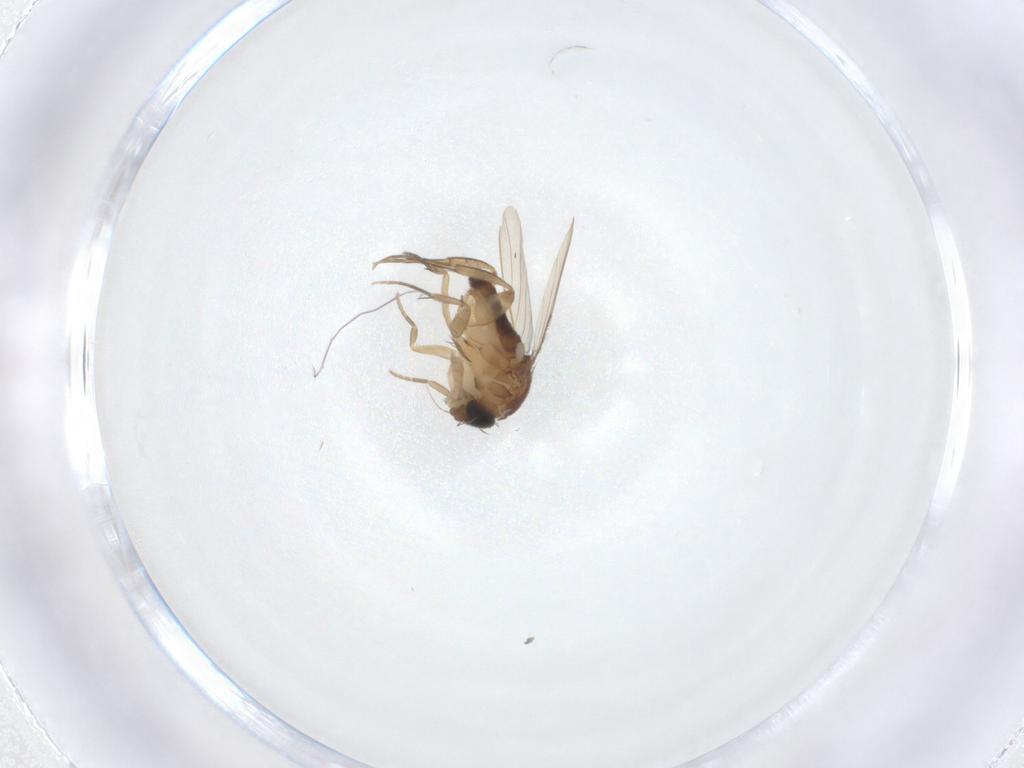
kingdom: Animalia
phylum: Arthropoda
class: Insecta
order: Diptera
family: Phoridae
